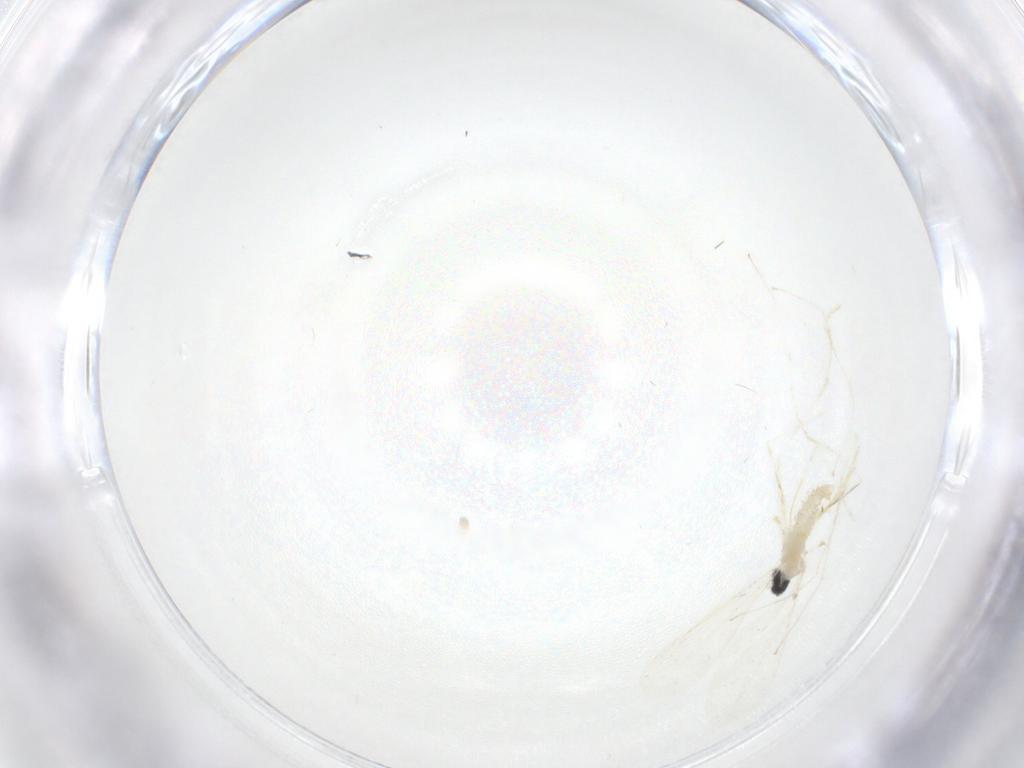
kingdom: Animalia
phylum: Arthropoda
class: Insecta
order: Diptera
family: Cecidomyiidae
